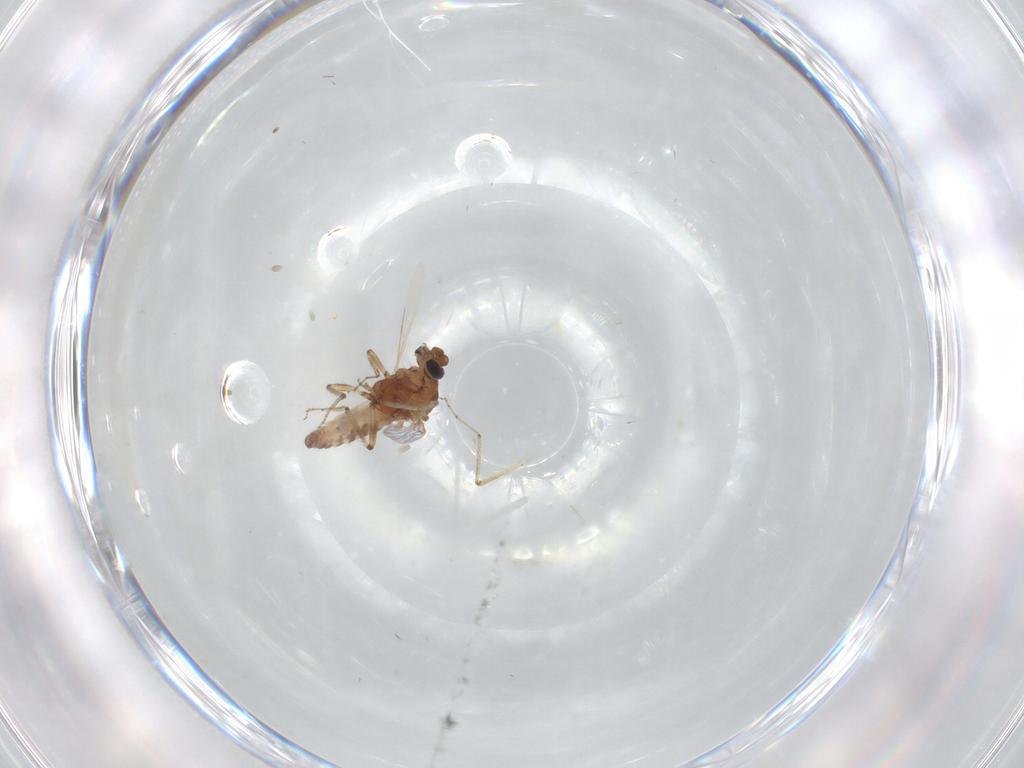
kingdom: Animalia
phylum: Arthropoda
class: Insecta
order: Diptera
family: Ceratopogonidae
